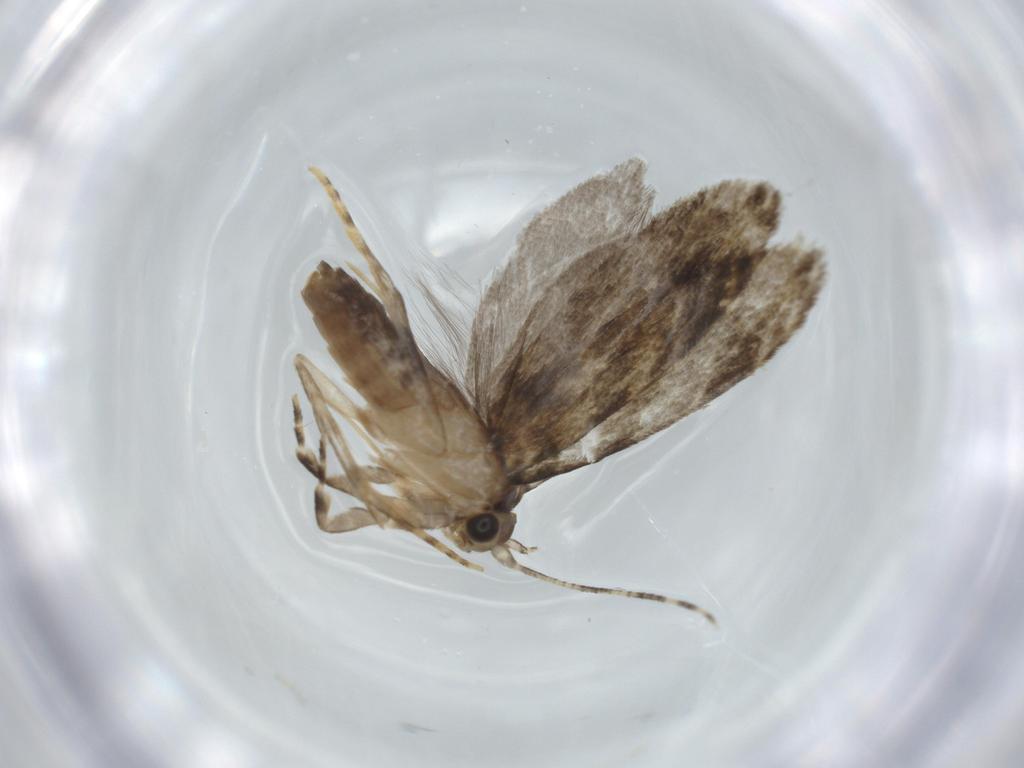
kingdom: Animalia
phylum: Arthropoda
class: Insecta
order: Lepidoptera
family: Tineidae
